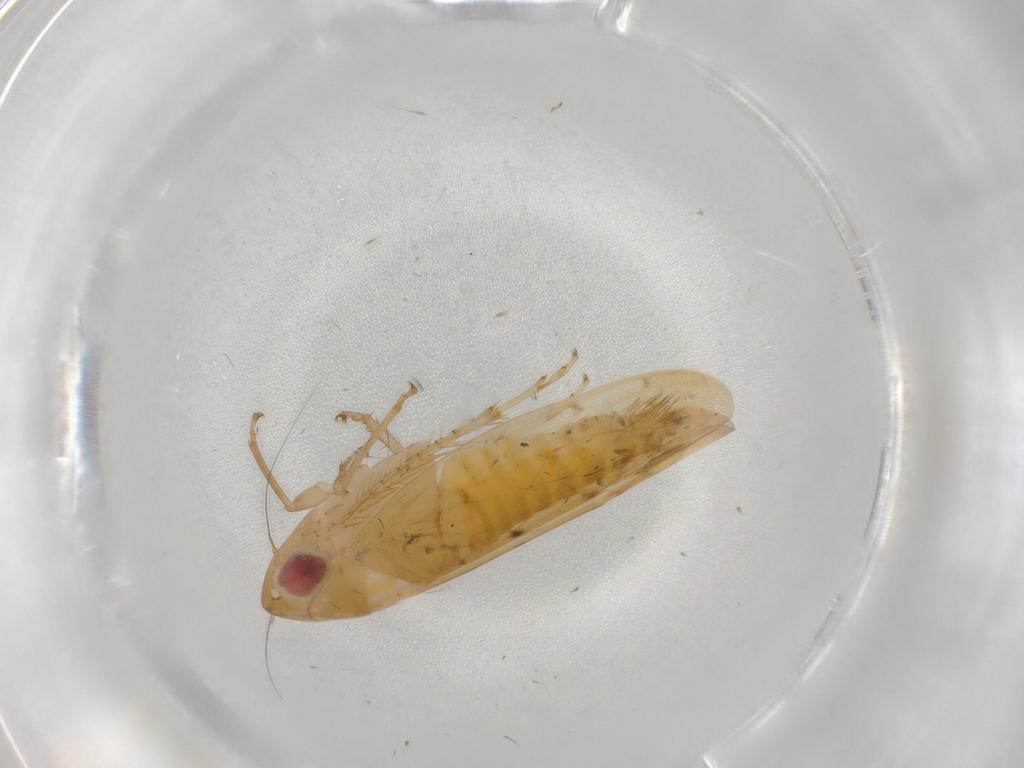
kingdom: Animalia
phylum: Arthropoda
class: Insecta
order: Hemiptera
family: Cicadellidae
